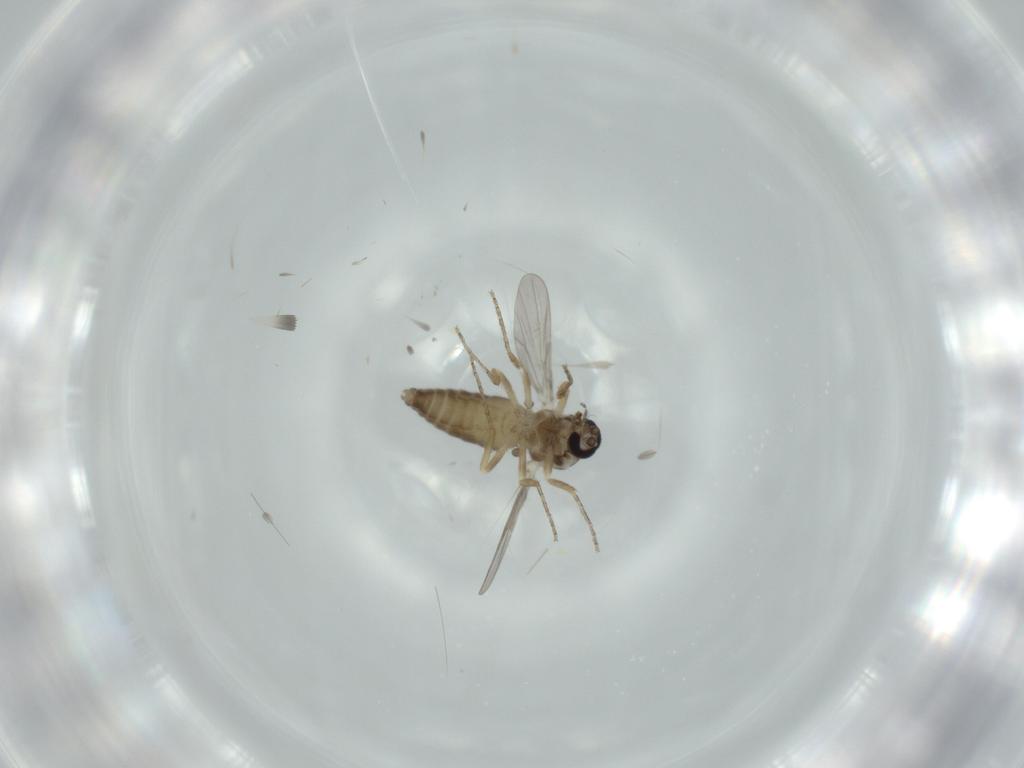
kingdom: Animalia
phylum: Arthropoda
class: Insecta
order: Diptera
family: Ceratopogonidae
